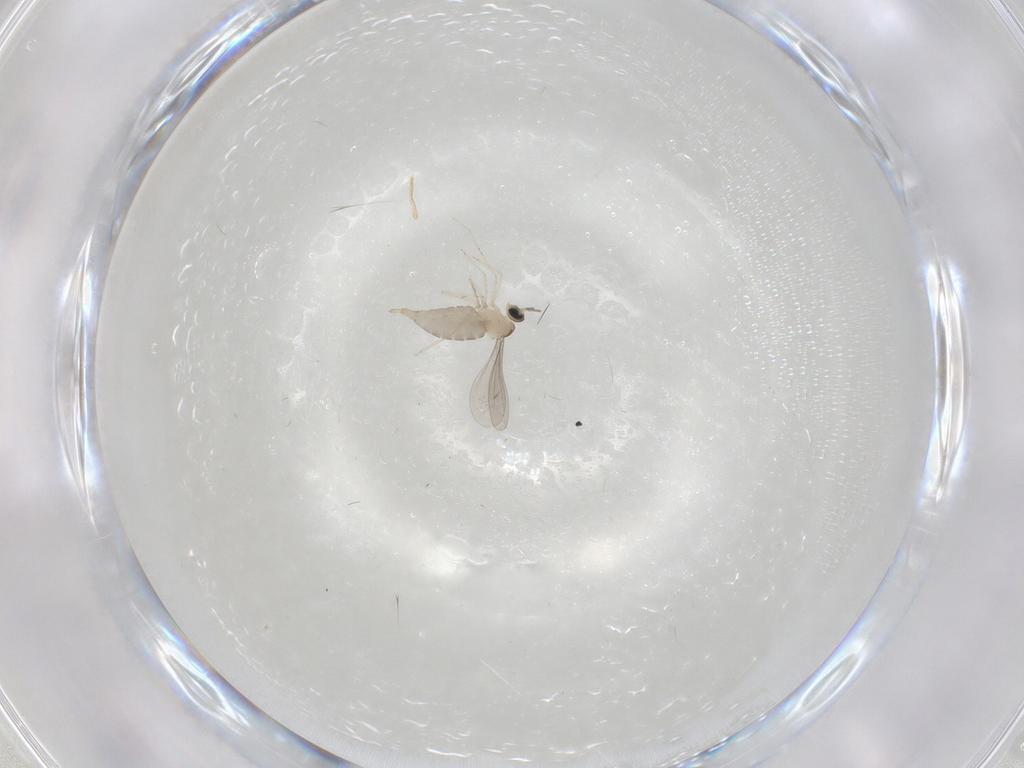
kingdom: Animalia
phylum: Arthropoda
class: Insecta
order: Diptera
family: Cecidomyiidae
